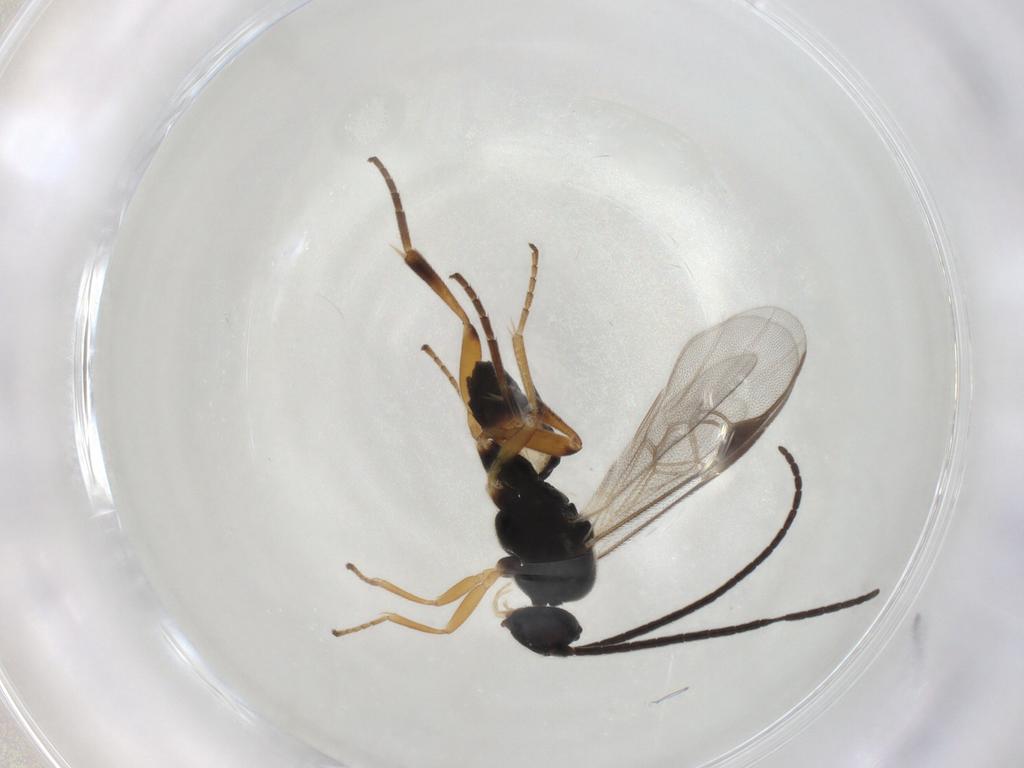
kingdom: Animalia
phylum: Arthropoda
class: Insecta
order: Hymenoptera
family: Braconidae
